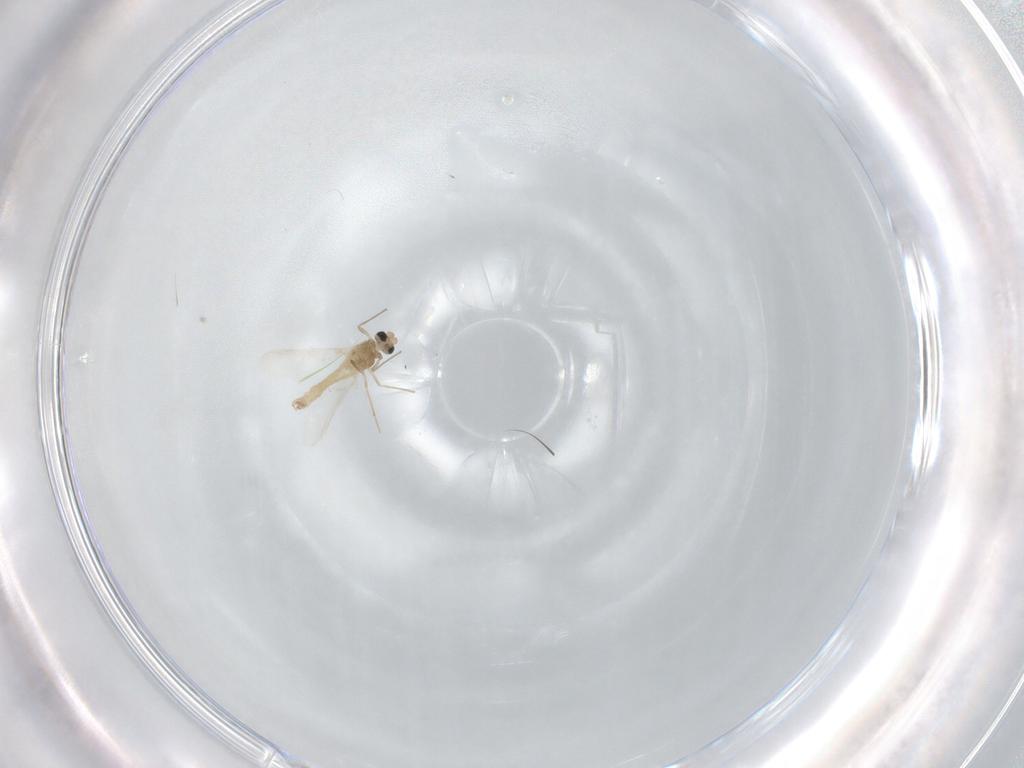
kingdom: Animalia
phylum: Arthropoda
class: Insecta
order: Diptera
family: Chironomidae
